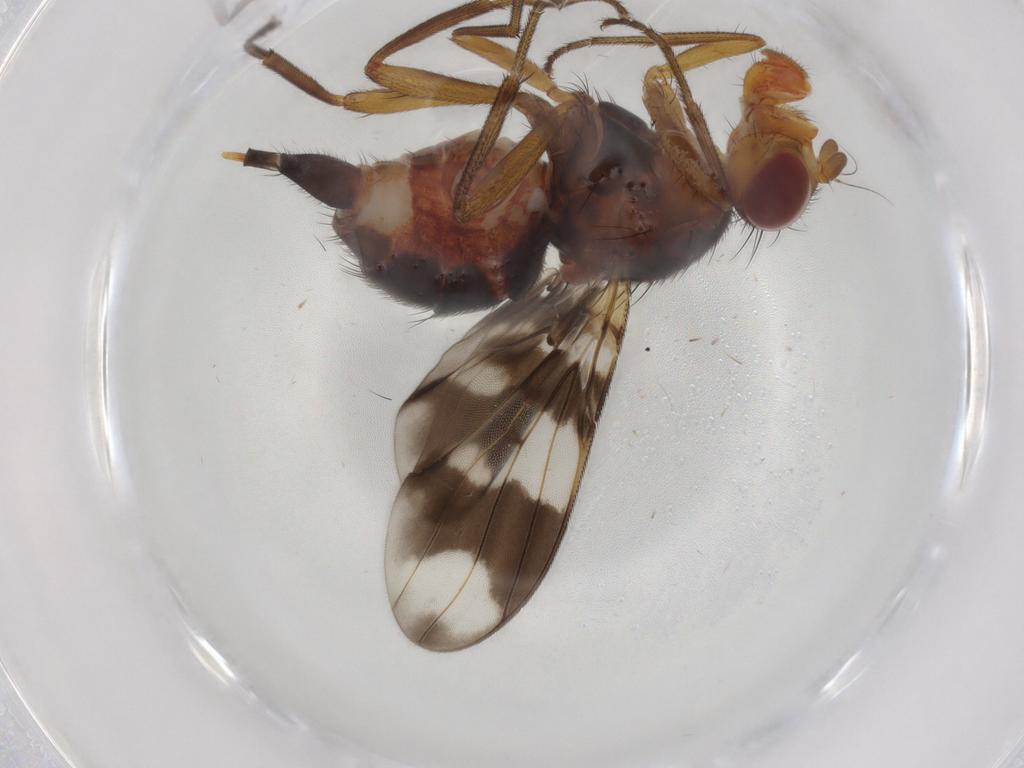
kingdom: Animalia
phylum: Arthropoda
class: Insecta
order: Diptera
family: Richardiidae
